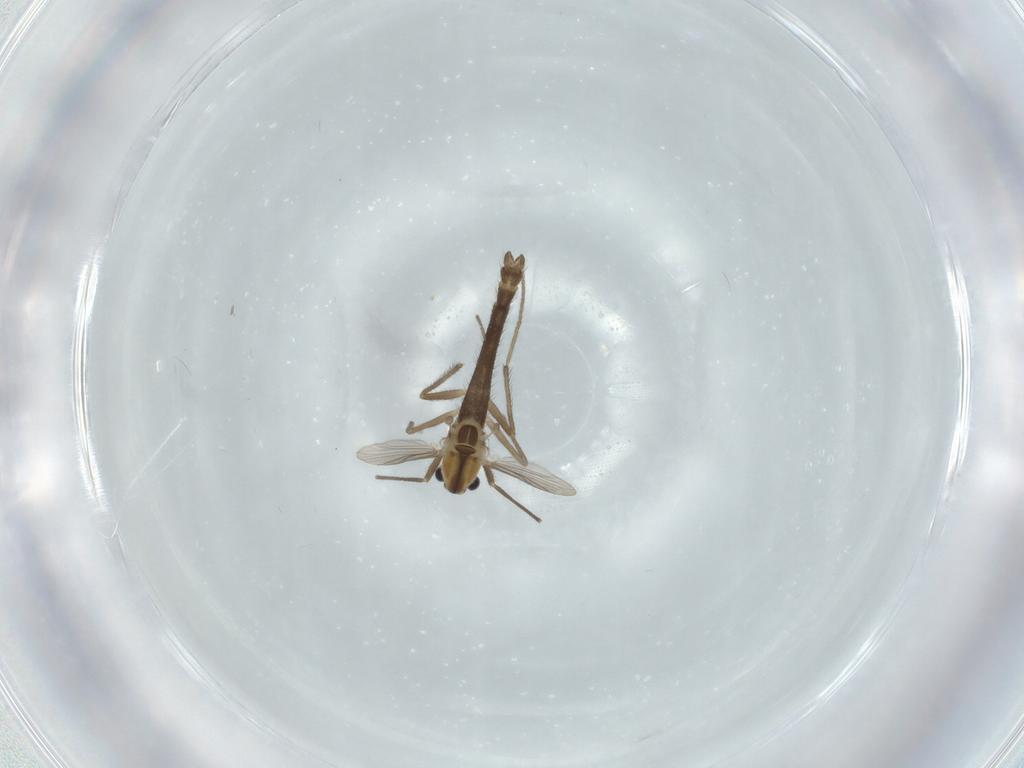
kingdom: Animalia
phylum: Arthropoda
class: Insecta
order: Diptera
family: Chironomidae
